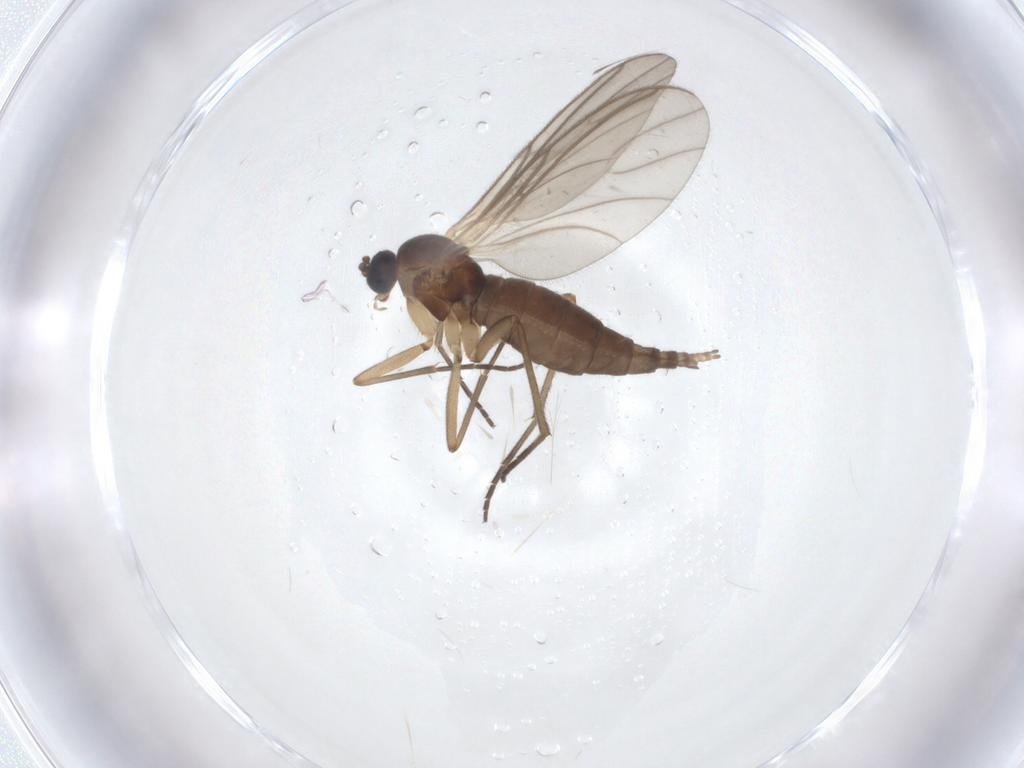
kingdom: Animalia
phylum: Arthropoda
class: Insecta
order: Diptera
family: Sciaridae
